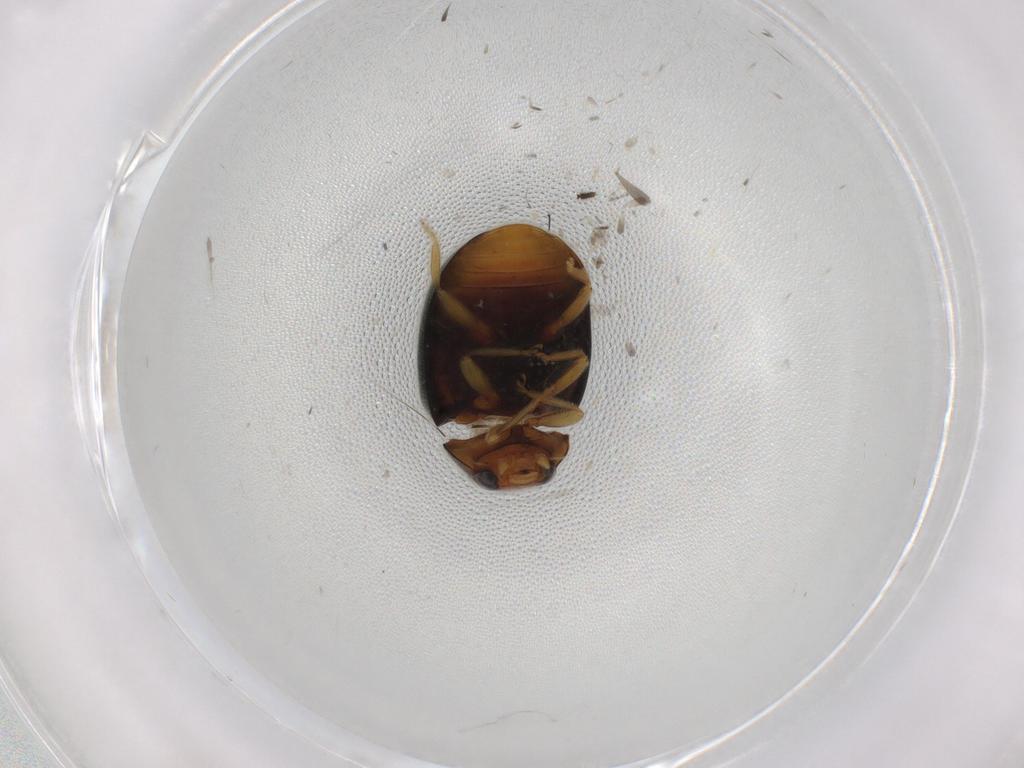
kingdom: Animalia
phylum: Arthropoda
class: Insecta
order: Coleoptera
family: Coccinellidae
